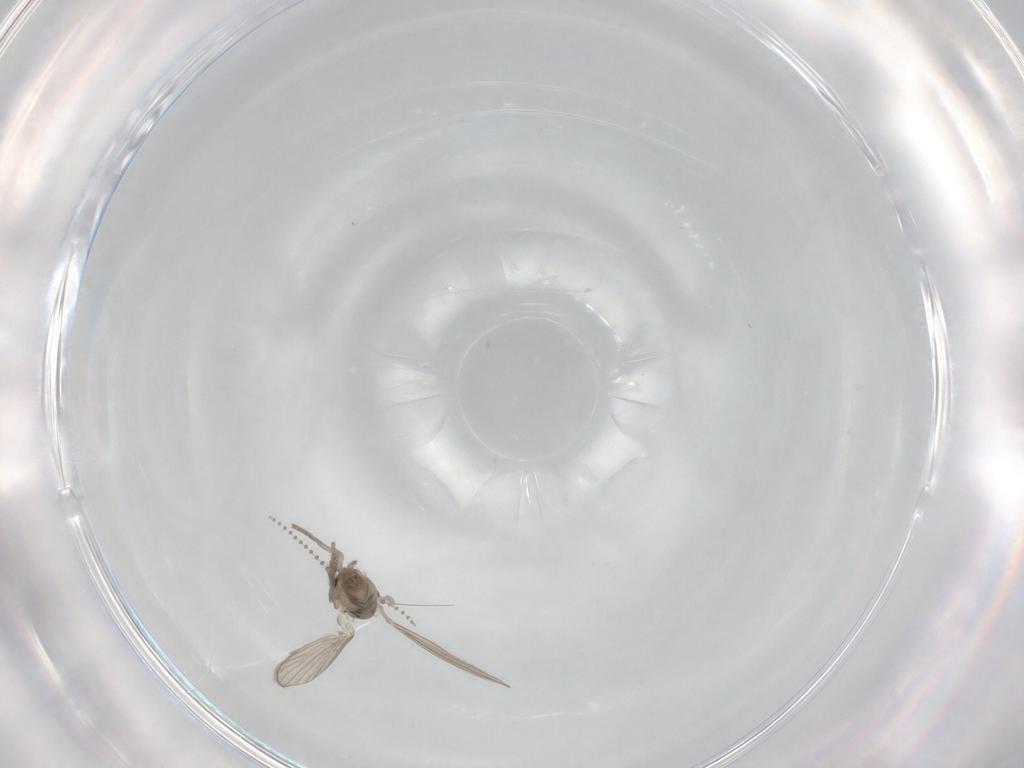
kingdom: Animalia
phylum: Arthropoda
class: Insecta
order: Diptera
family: Psychodidae
